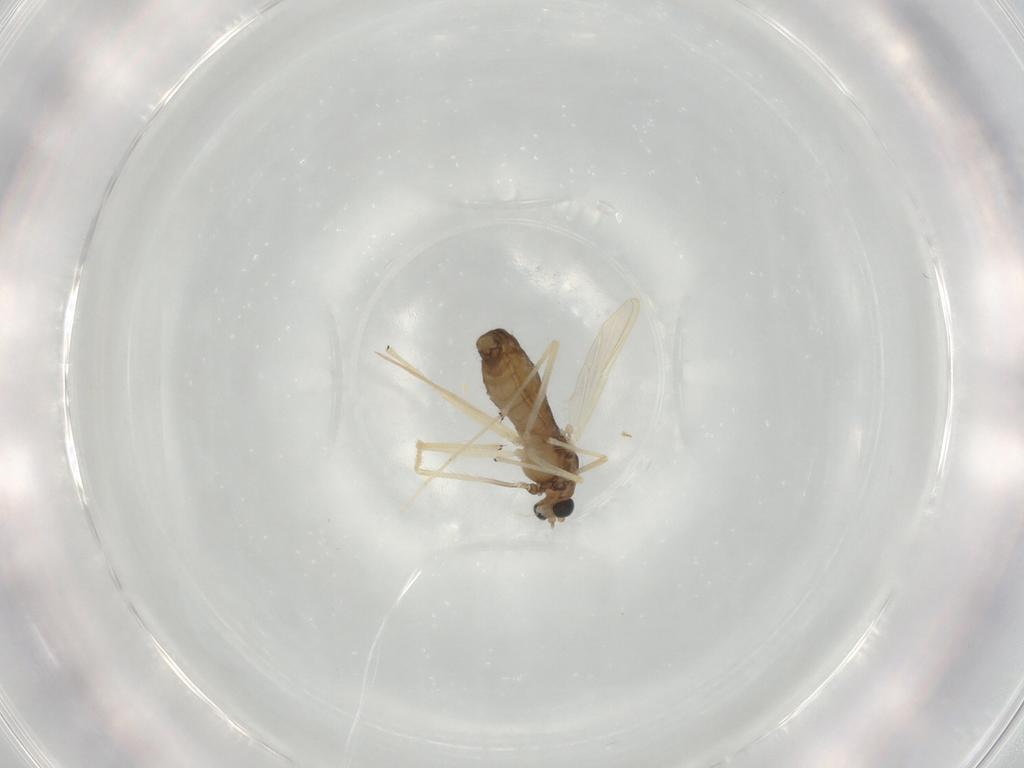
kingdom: Animalia
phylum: Arthropoda
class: Insecta
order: Diptera
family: Chironomidae
